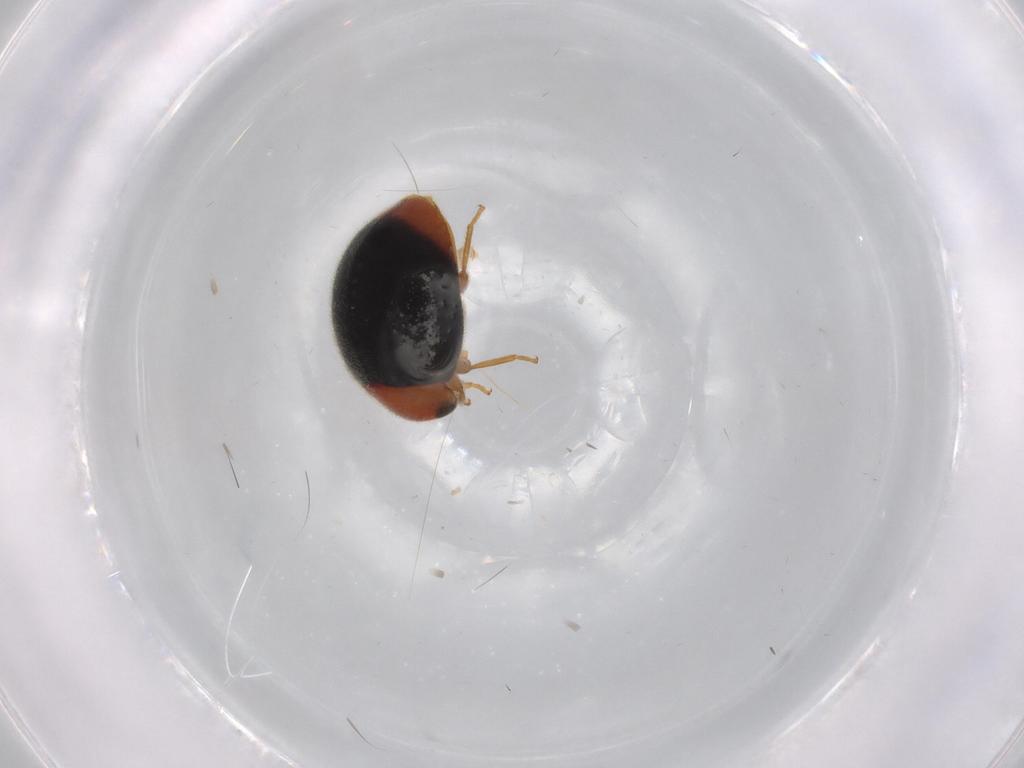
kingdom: Animalia
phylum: Arthropoda
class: Insecta
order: Coleoptera
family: Coccinellidae
